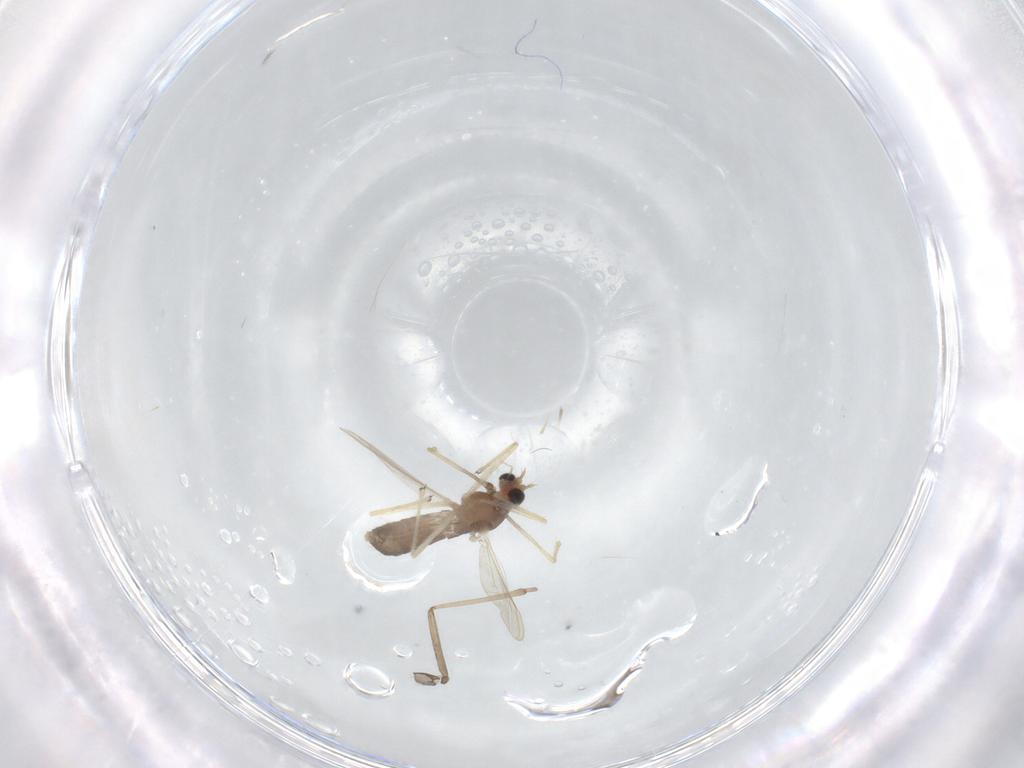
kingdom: Animalia
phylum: Arthropoda
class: Insecta
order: Diptera
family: Chironomidae
